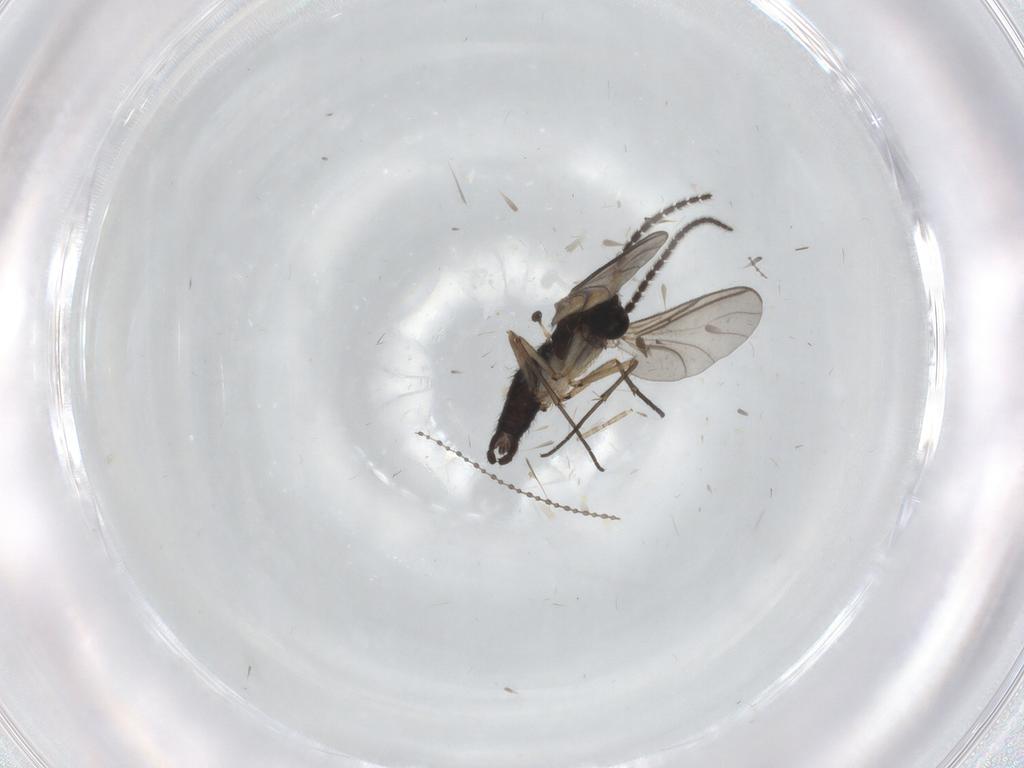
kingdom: Animalia
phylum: Arthropoda
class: Insecta
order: Diptera
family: Sciaridae
